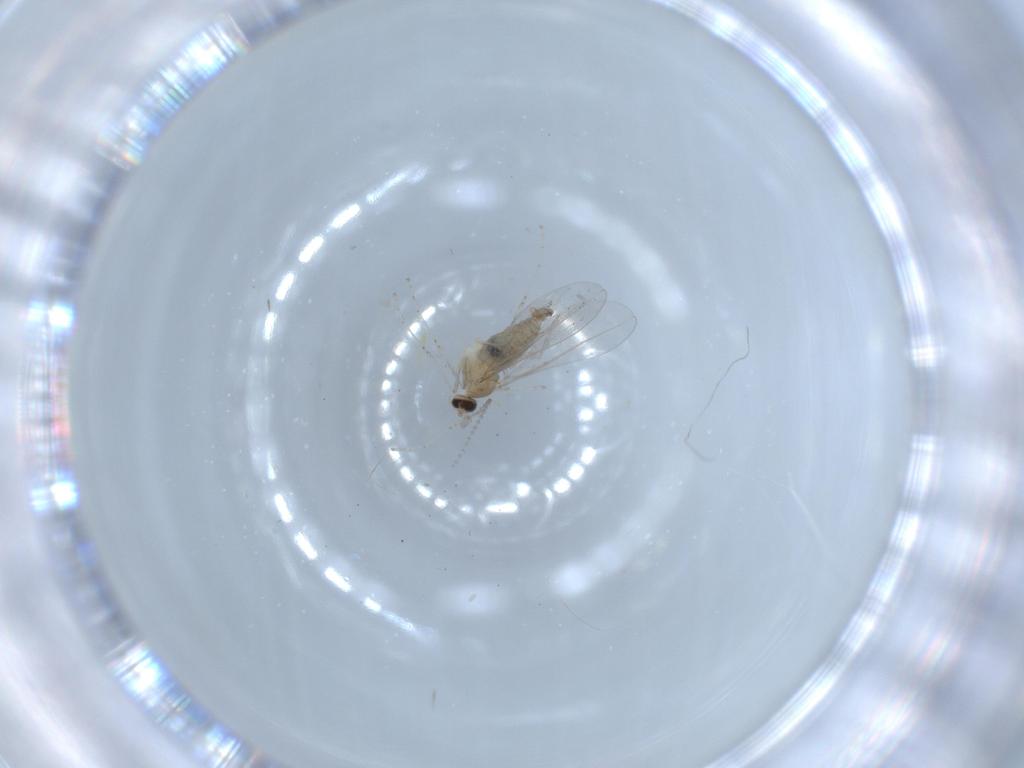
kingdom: Animalia
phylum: Arthropoda
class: Insecta
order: Diptera
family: Cecidomyiidae
